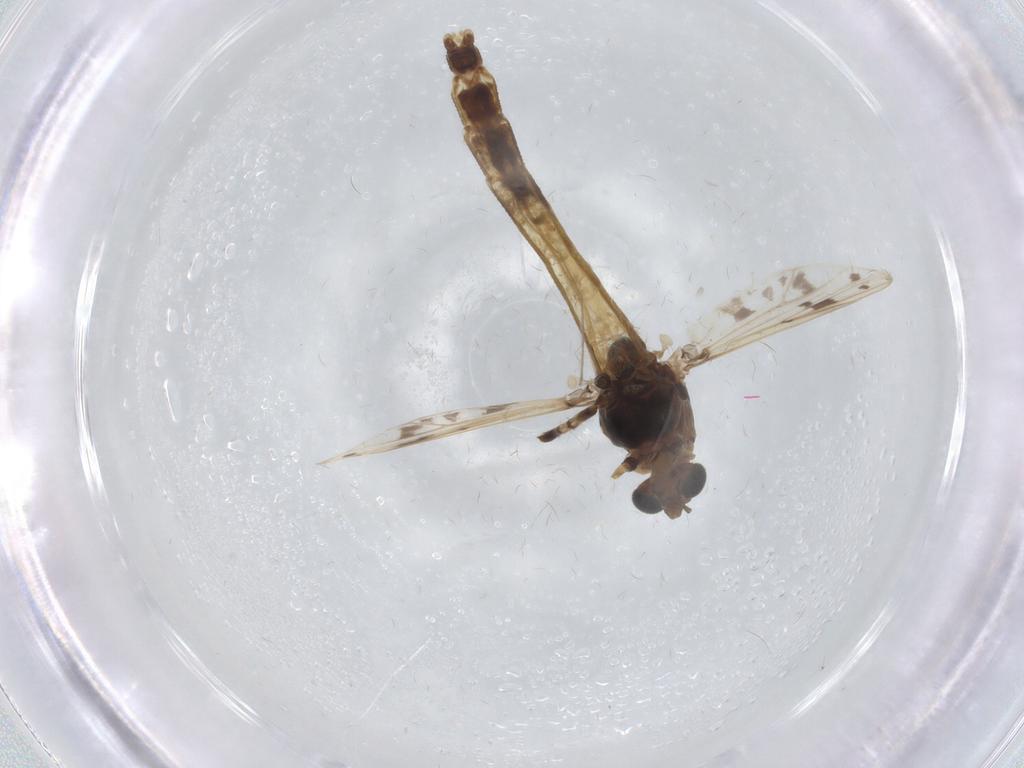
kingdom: Animalia
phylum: Arthropoda
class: Insecta
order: Diptera
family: Chironomidae
